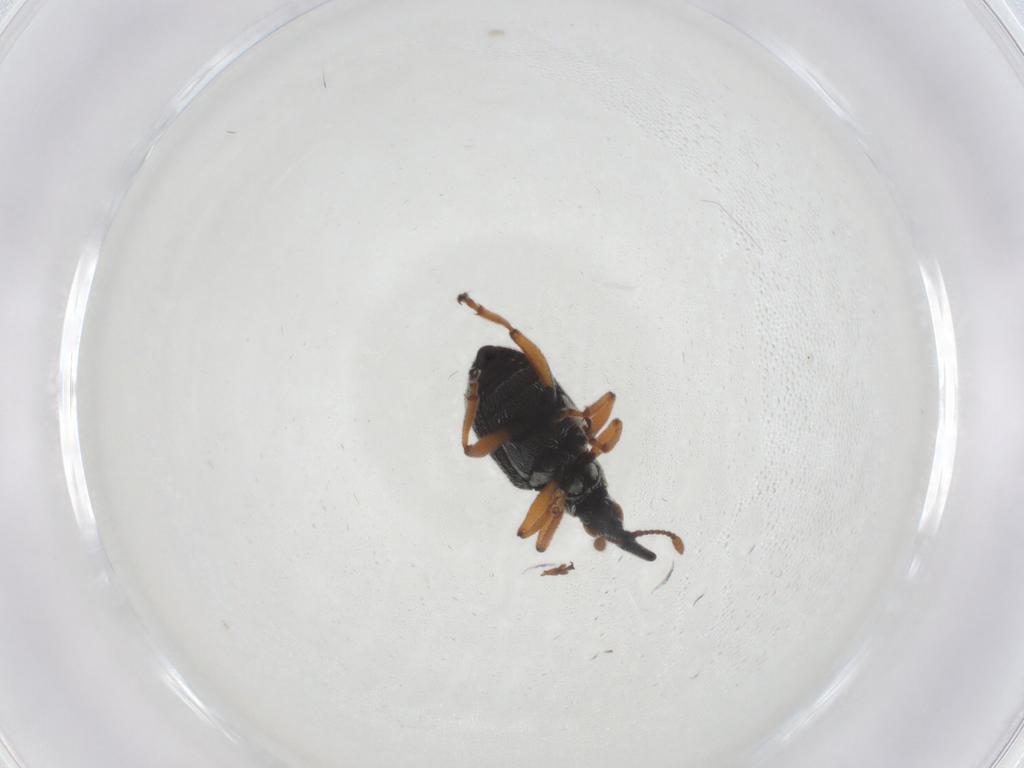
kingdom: Animalia
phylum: Arthropoda
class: Insecta
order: Coleoptera
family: Brentidae
